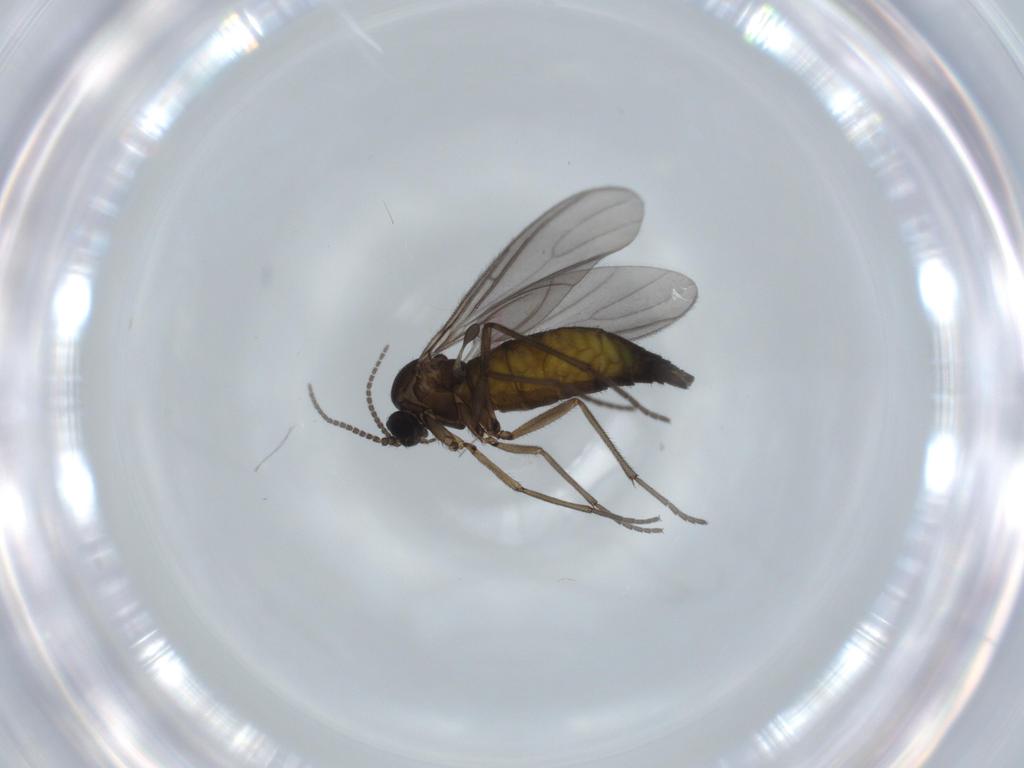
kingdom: Animalia
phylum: Arthropoda
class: Insecta
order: Diptera
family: Sciaridae
